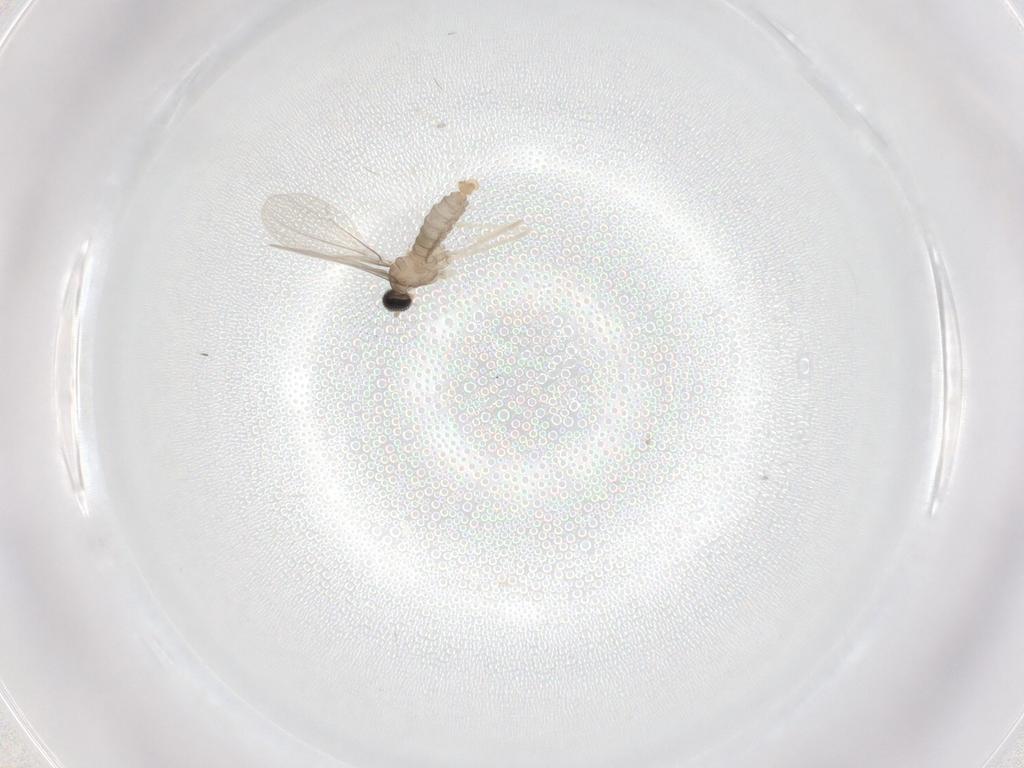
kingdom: Animalia
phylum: Arthropoda
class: Insecta
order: Diptera
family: Cecidomyiidae
